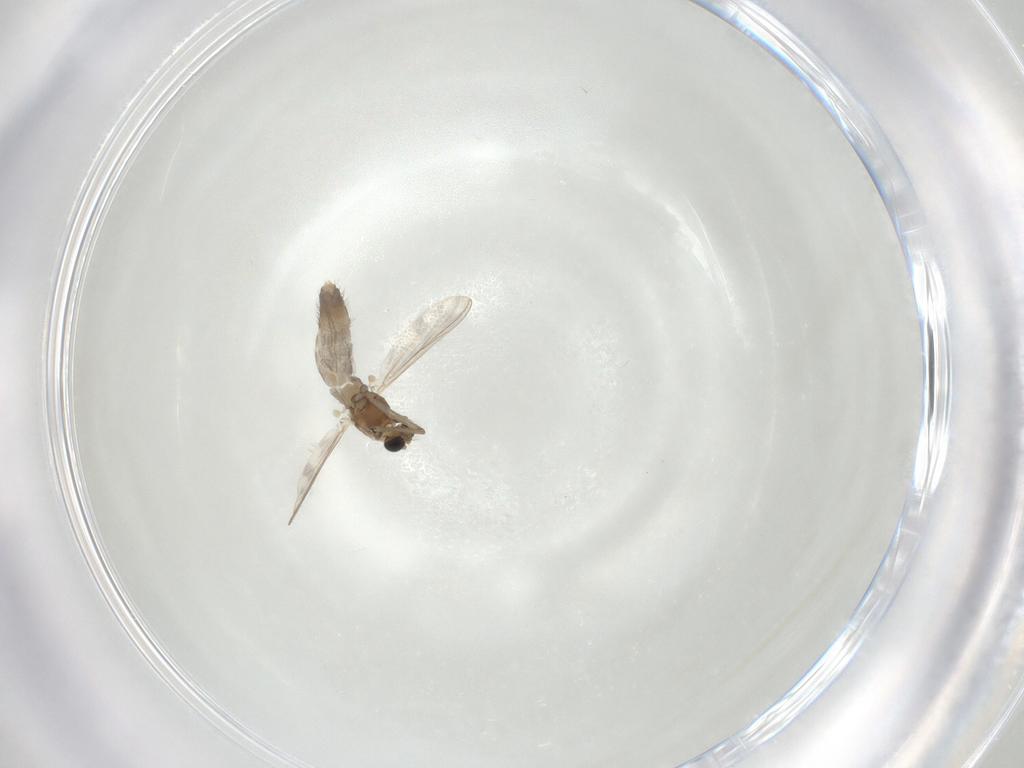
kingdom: Animalia
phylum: Arthropoda
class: Insecta
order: Diptera
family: Chironomidae
